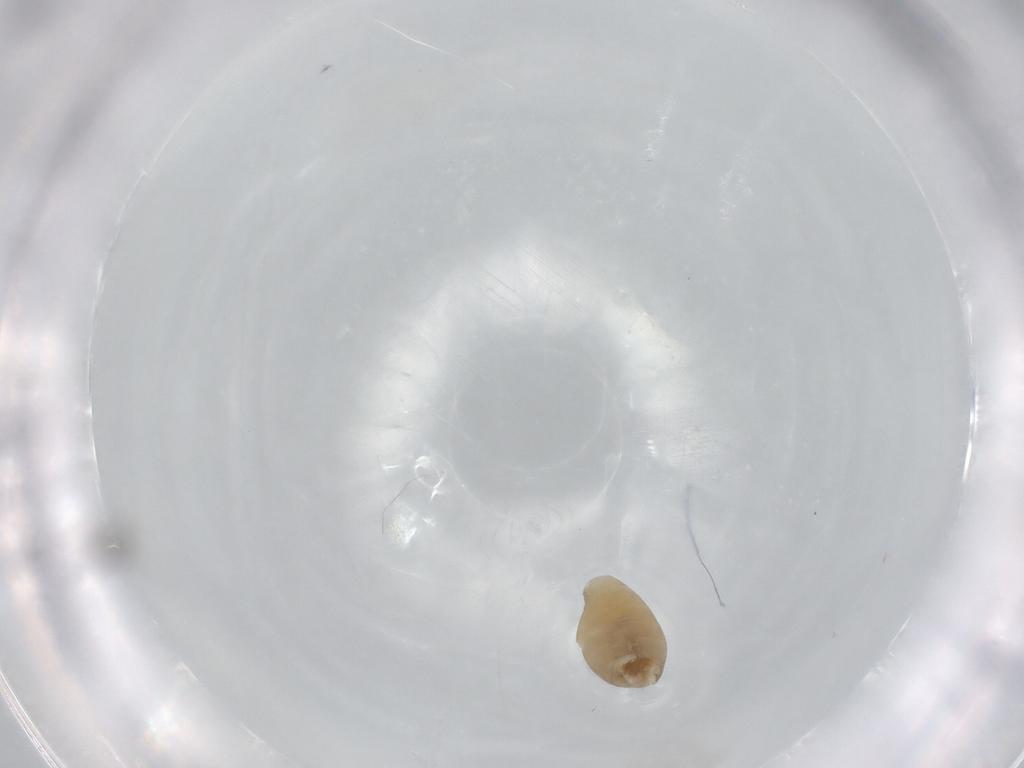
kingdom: Animalia
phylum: Arthropoda
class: Insecta
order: Diptera
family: Cecidomyiidae
